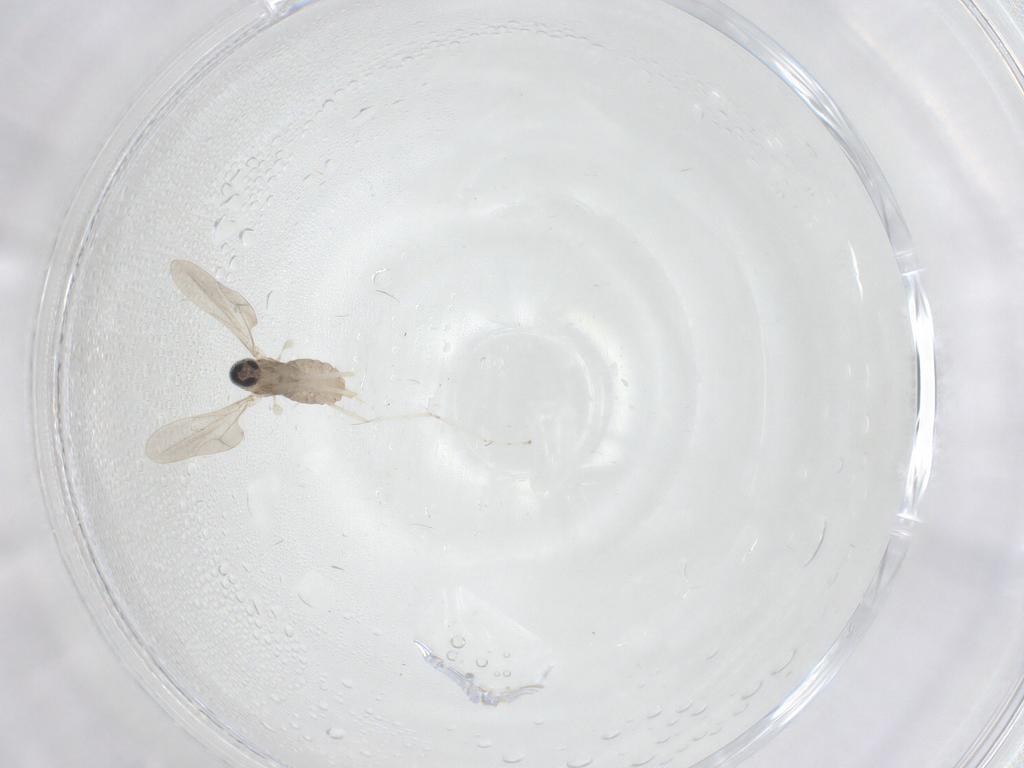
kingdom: Animalia
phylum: Arthropoda
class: Insecta
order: Diptera
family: Cecidomyiidae
